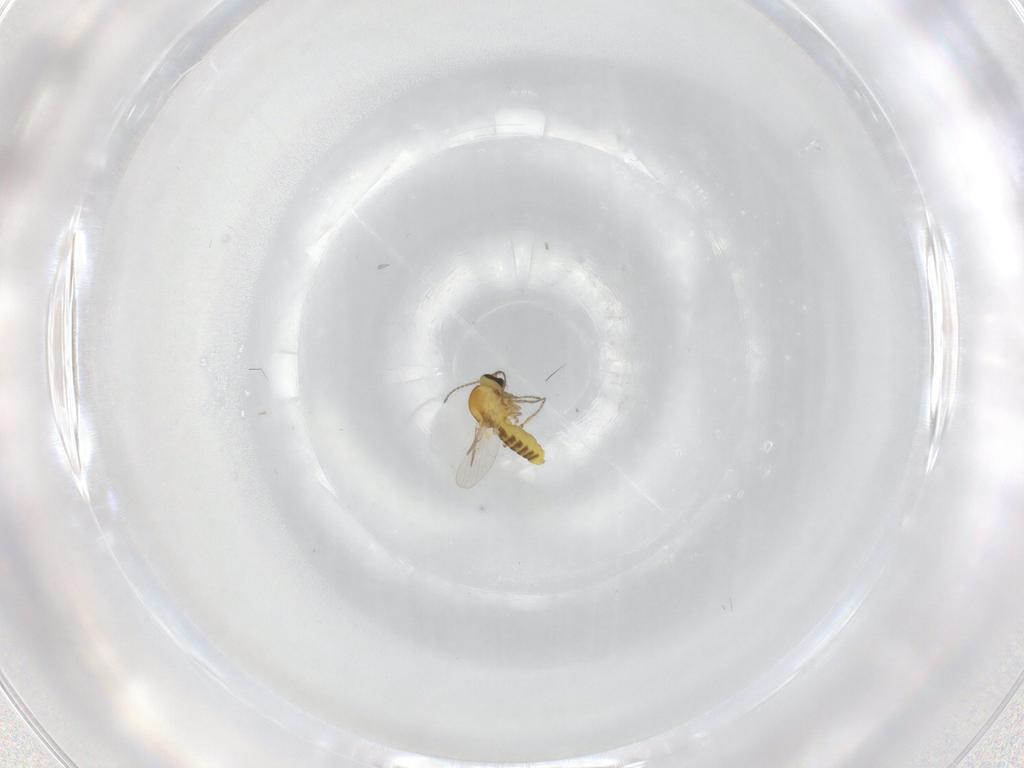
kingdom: Animalia
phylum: Arthropoda
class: Insecta
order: Diptera
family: Ceratopogonidae
